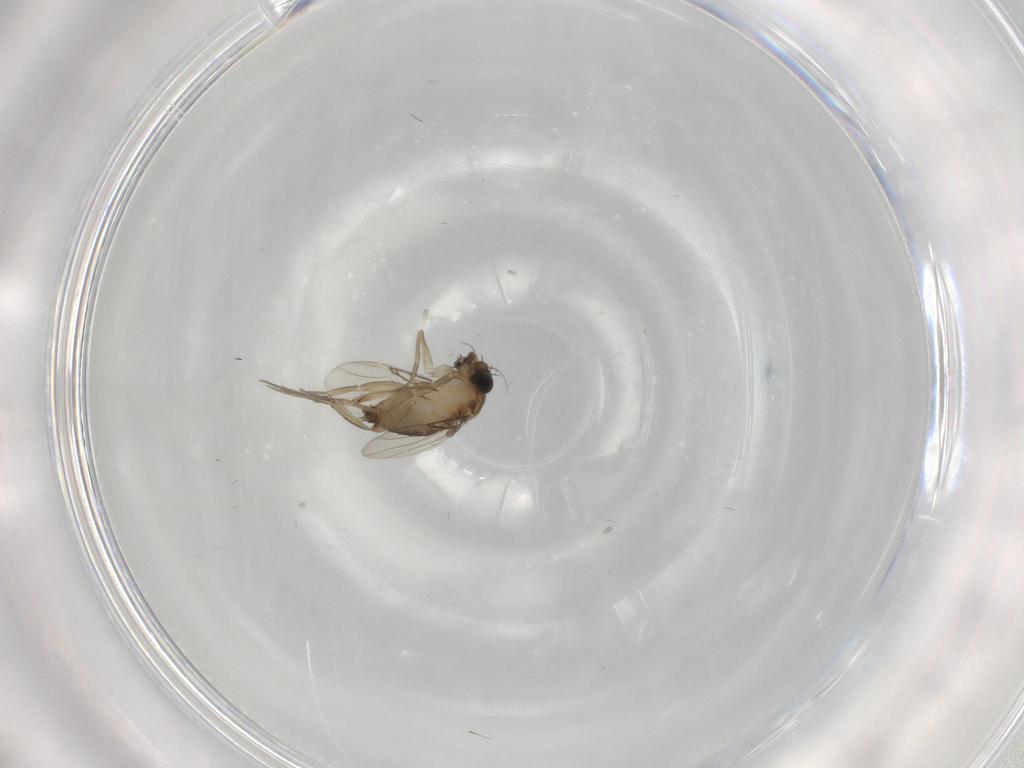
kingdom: Animalia
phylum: Arthropoda
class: Insecta
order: Diptera
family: Phoridae
